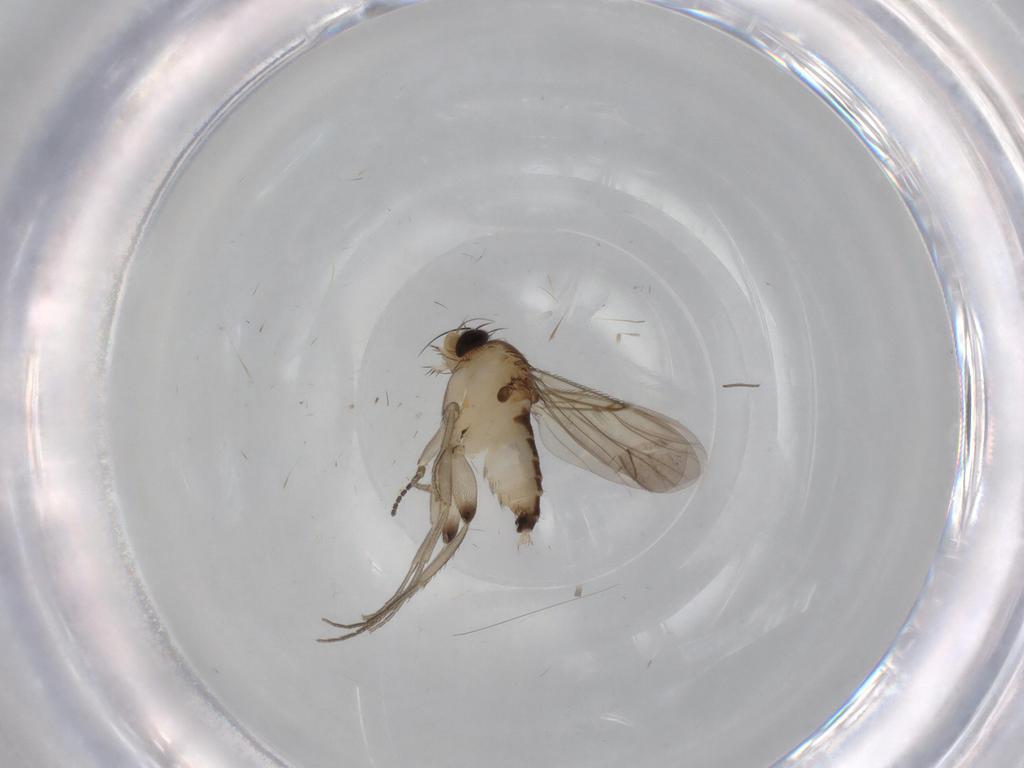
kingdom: Animalia
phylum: Arthropoda
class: Insecta
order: Diptera
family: Phoridae
